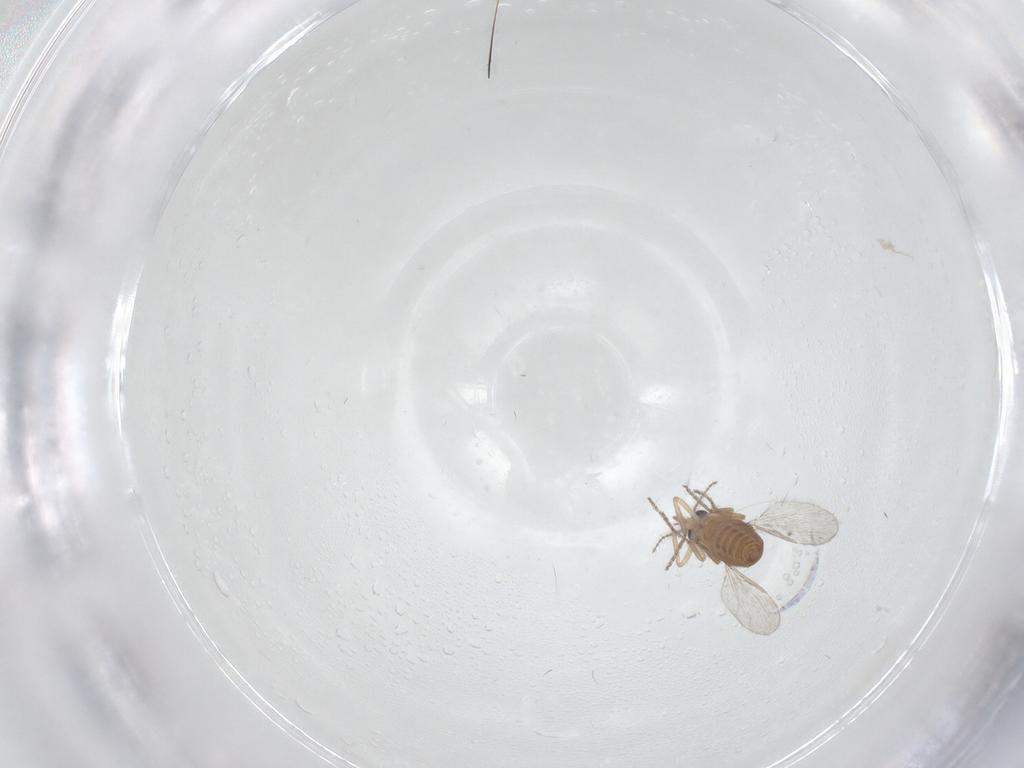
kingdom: Animalia
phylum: Arthropoda
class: Insecta
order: Diptera
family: Ceratopogonidae
